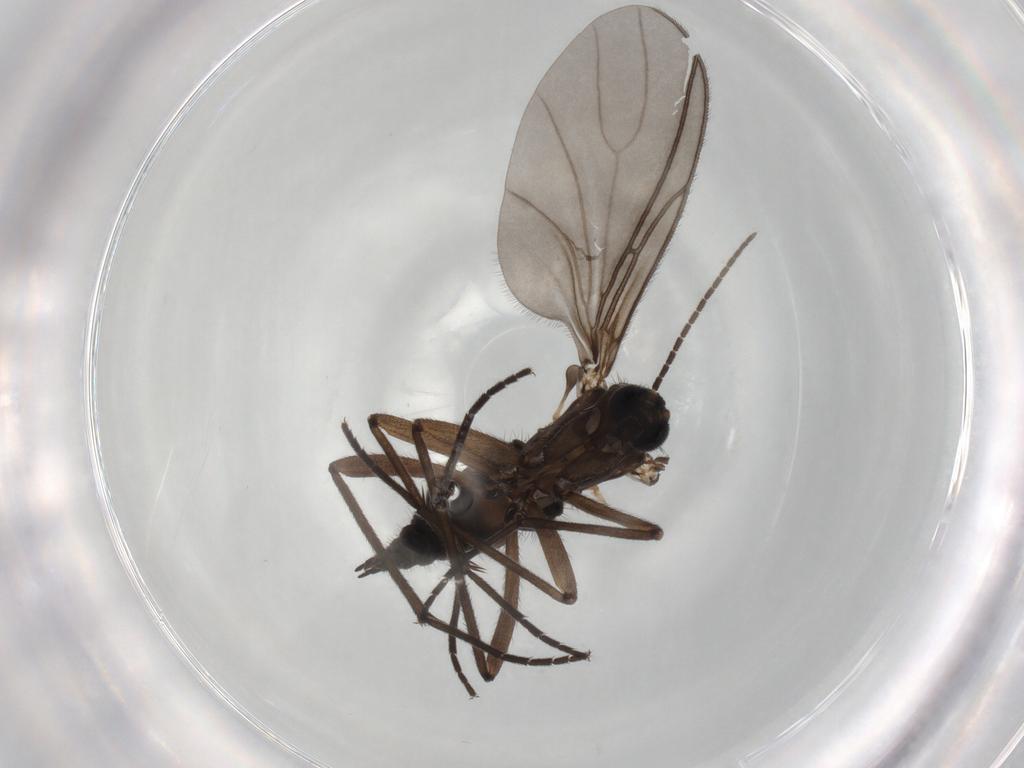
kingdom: Animalia
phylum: Arthropoda
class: Insecta
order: Diptera
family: Sciaridae
